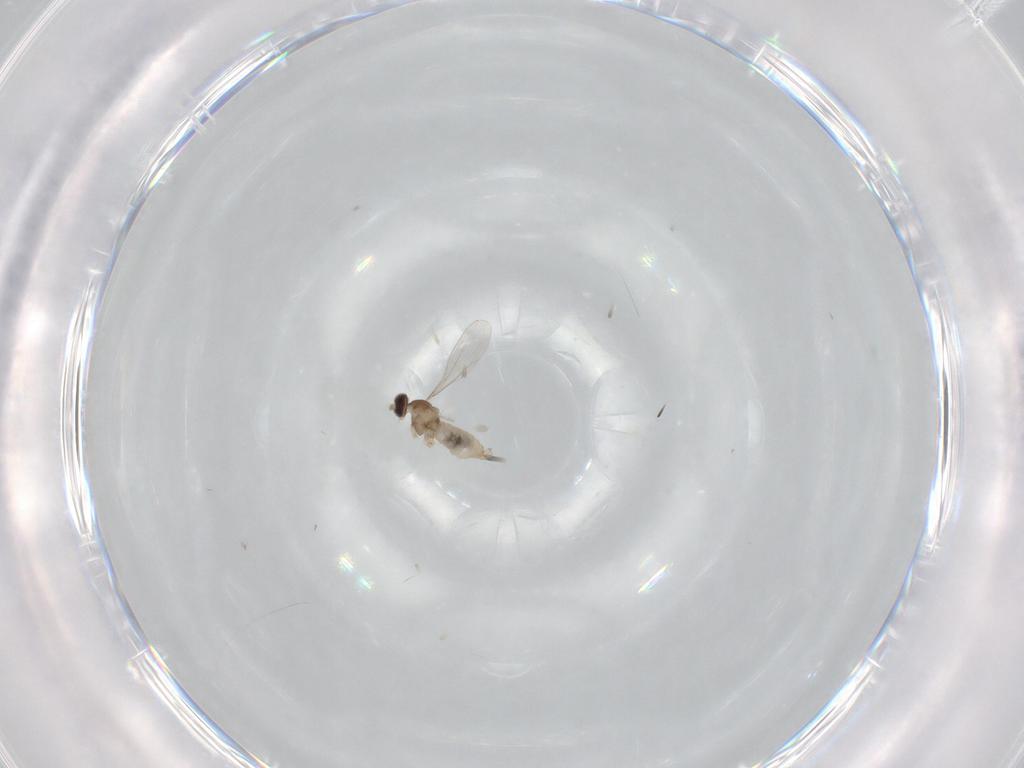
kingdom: Animalia
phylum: Arthropoda
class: Insecta
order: Diptera
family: Cecidomyiidae
